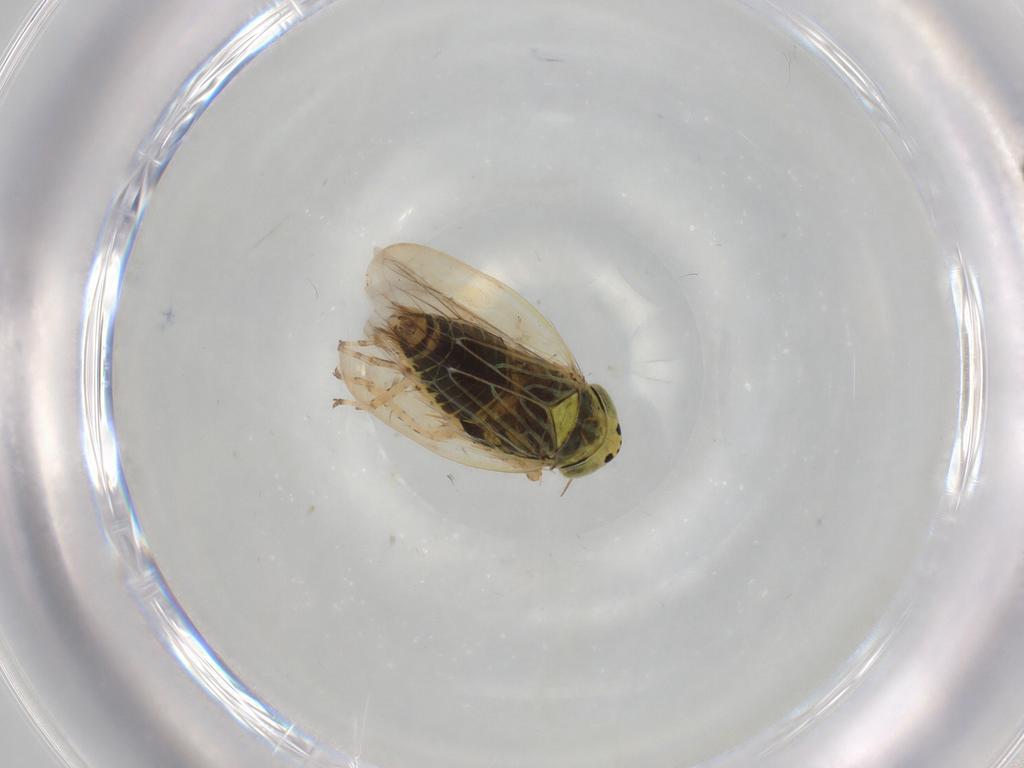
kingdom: Animalia
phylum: Arthropoda
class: Insecta
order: Hemiptera
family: Cicadellidae
